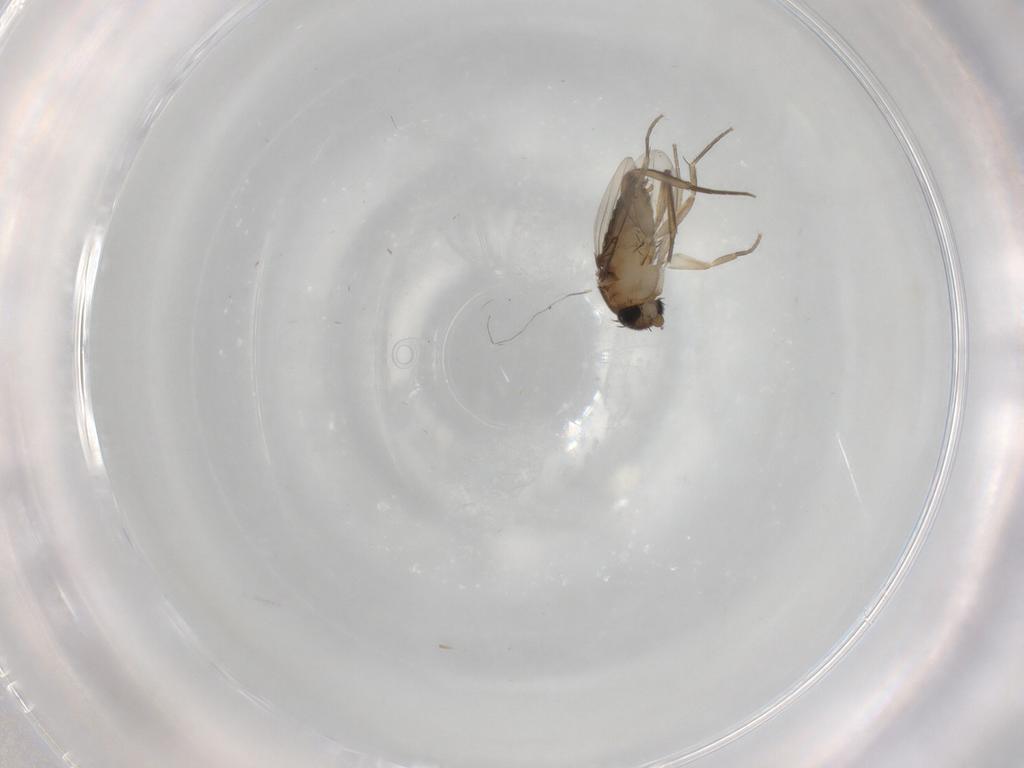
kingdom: Animalia
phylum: Arthropoda
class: Insecta
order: Diptera
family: Phoridae
